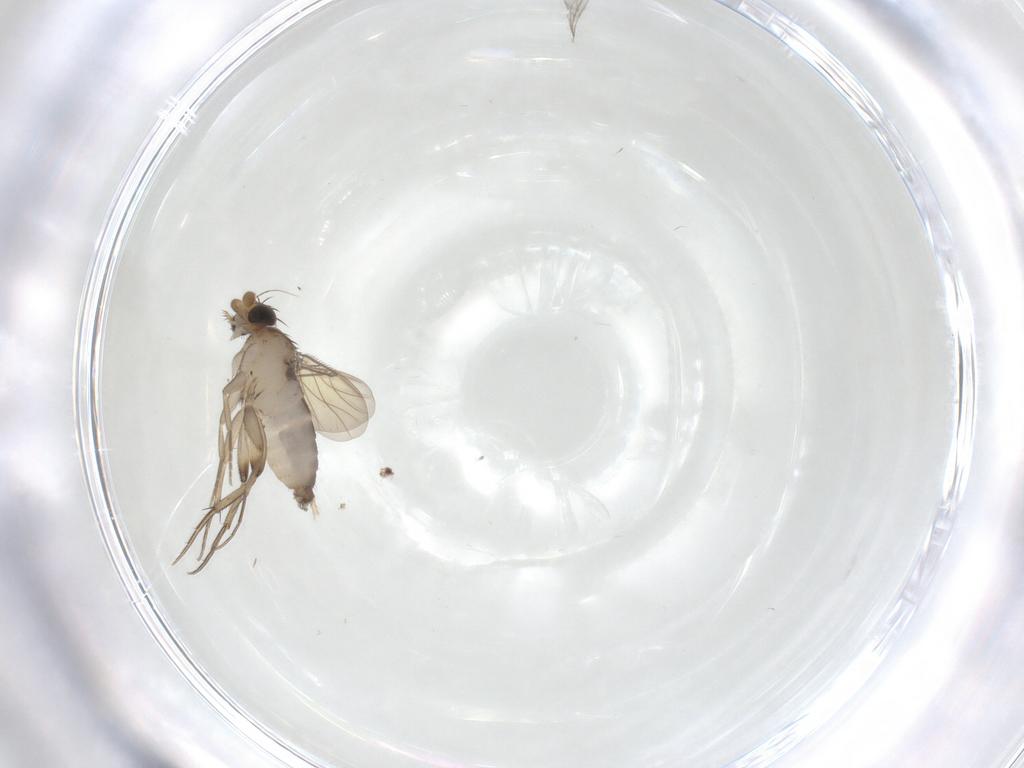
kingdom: Animalia
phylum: Arthropoda
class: Insecta
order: Diptera
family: Phoridae
